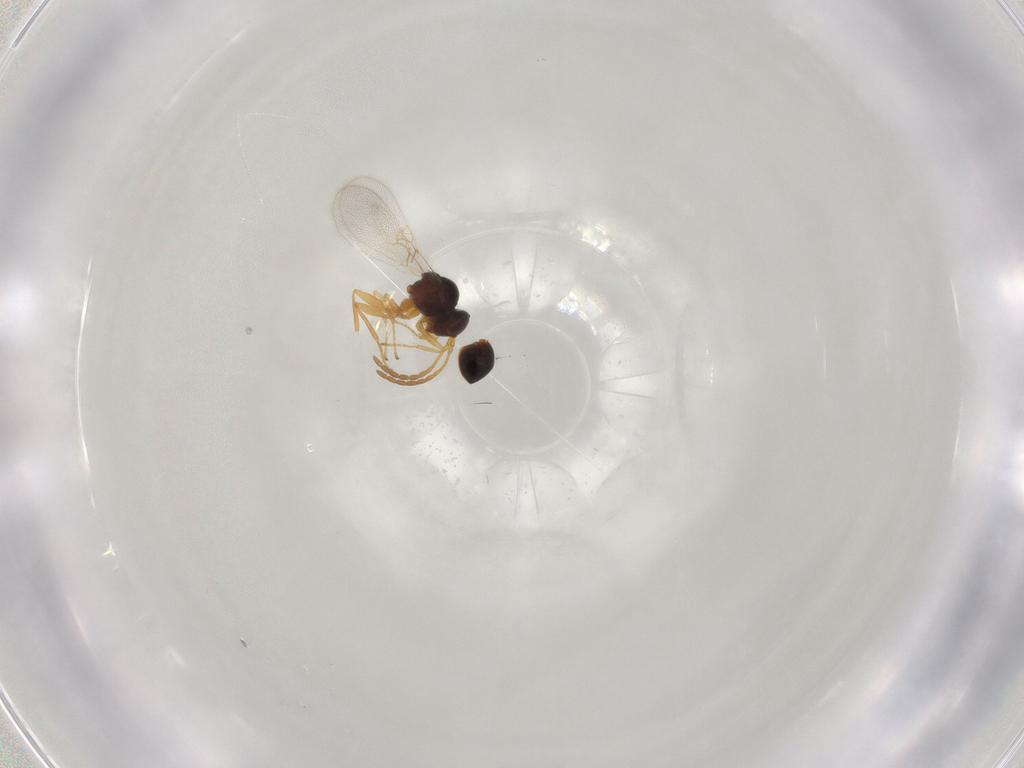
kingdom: Animalia
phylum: Arthropoda
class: Insecta
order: Hymenoptera
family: Figitidae
